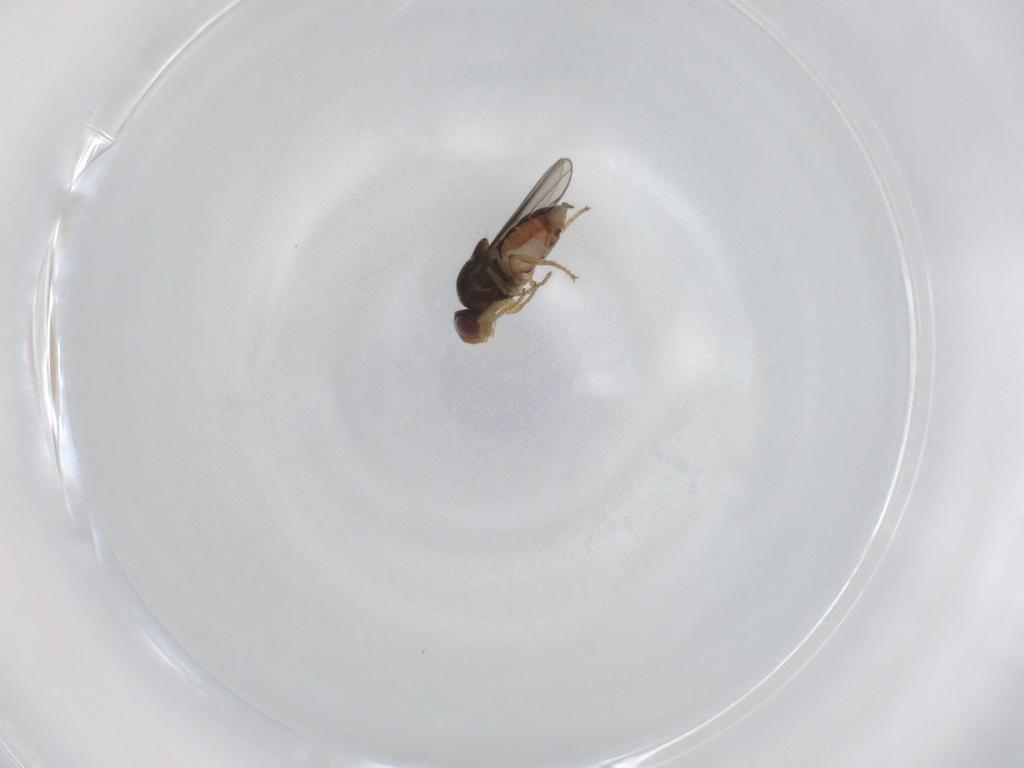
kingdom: Animalia
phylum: Arthropoda
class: Insecta
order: Diptera
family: Chloropidae
